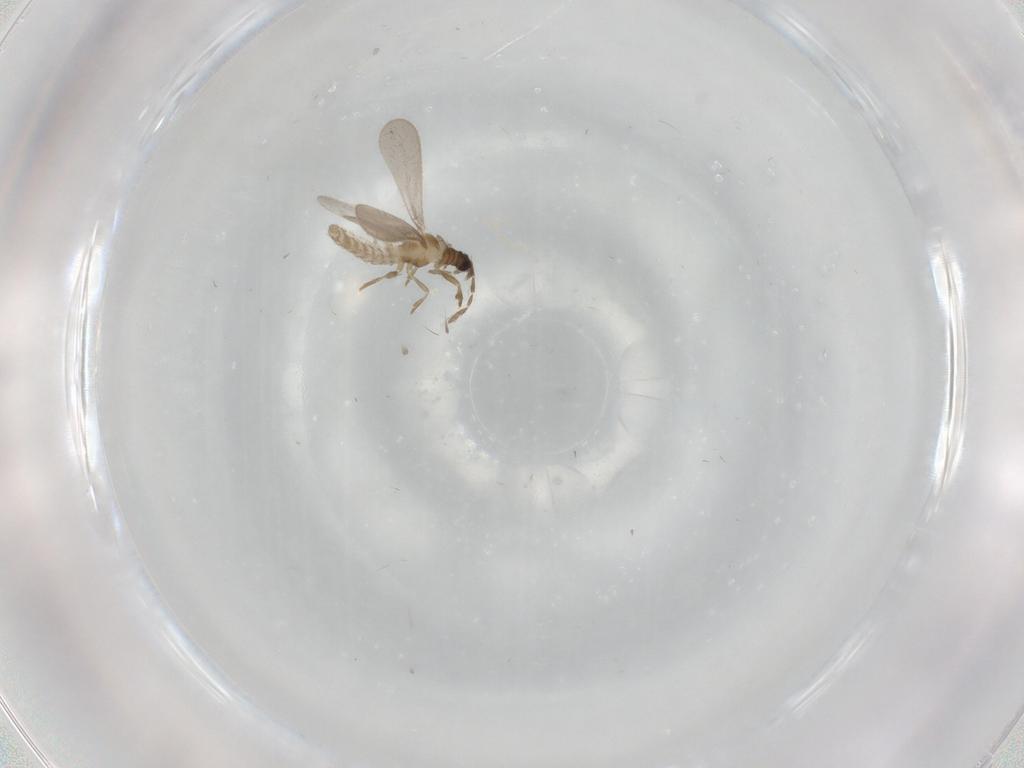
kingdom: Animalia
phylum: Arthropoda
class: Insecta
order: Hemiptera
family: Enicocephalidae
